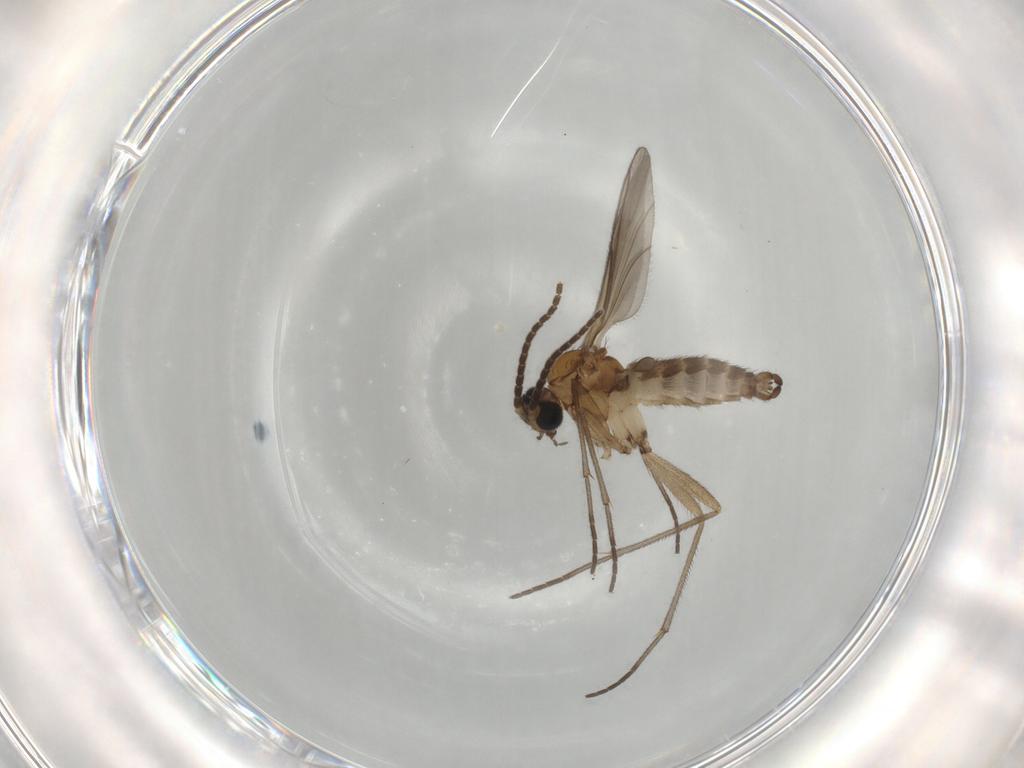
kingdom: Animalia
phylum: Arthropoda
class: Insecta
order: Diptera
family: Sciaridae
